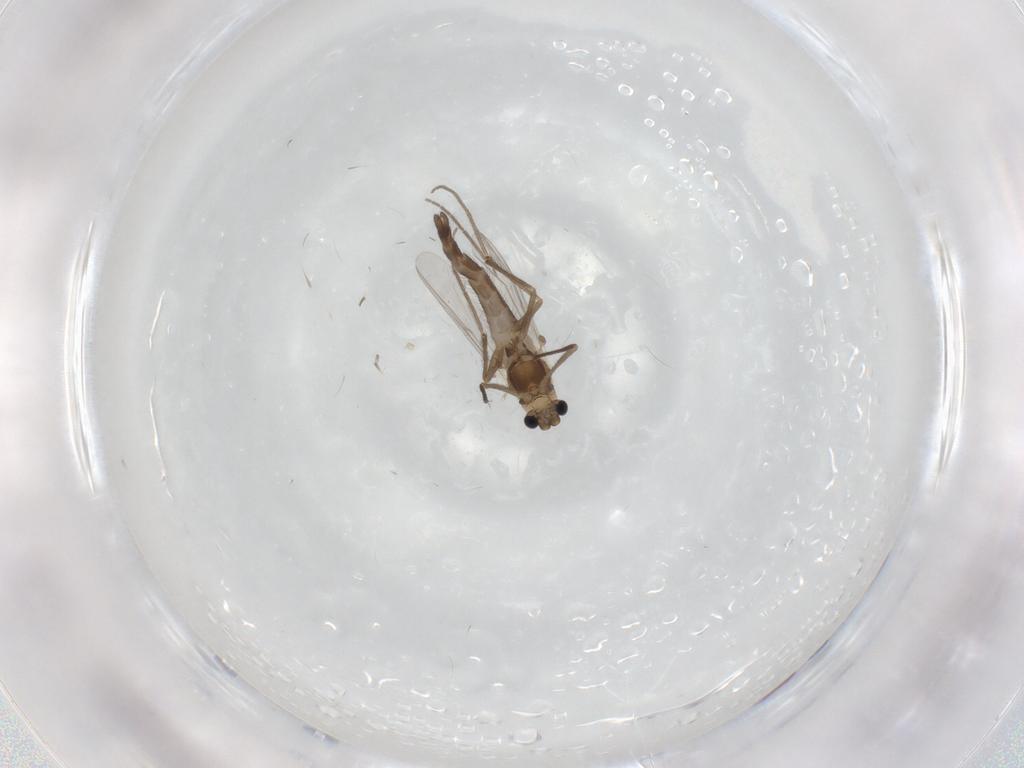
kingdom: Animalia
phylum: Arthropoda
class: Insecta
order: Diptera
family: Chironomidae
